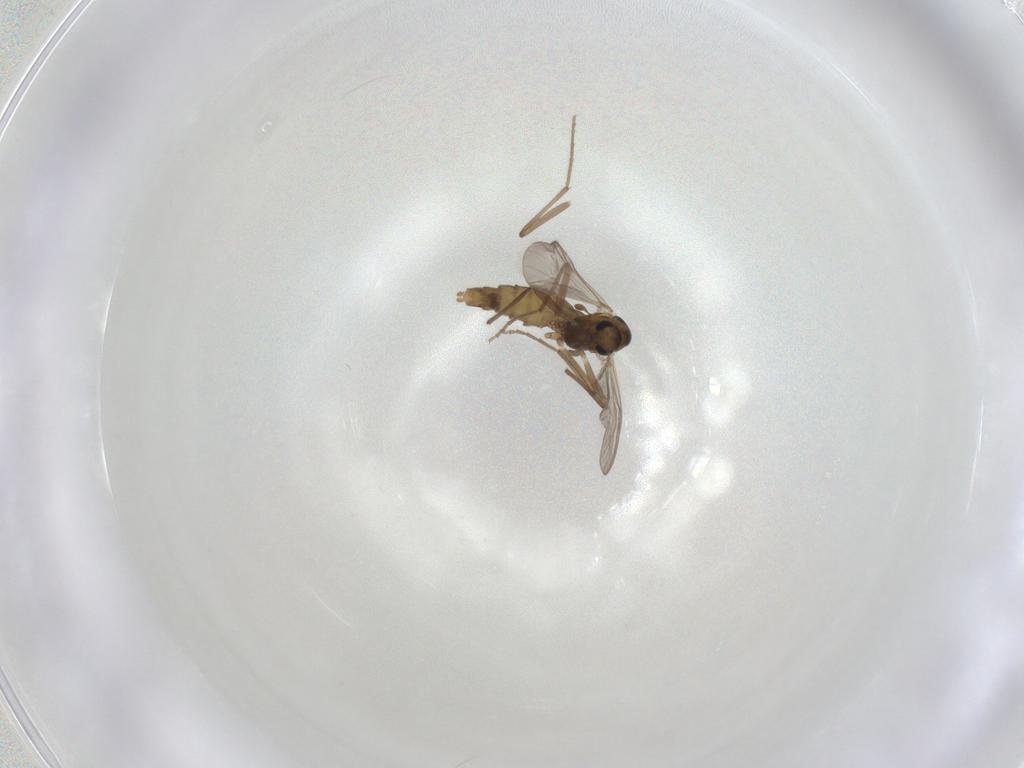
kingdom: Animalia
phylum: Arthropoda
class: Insecta
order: Diptera
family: Chironomidae
